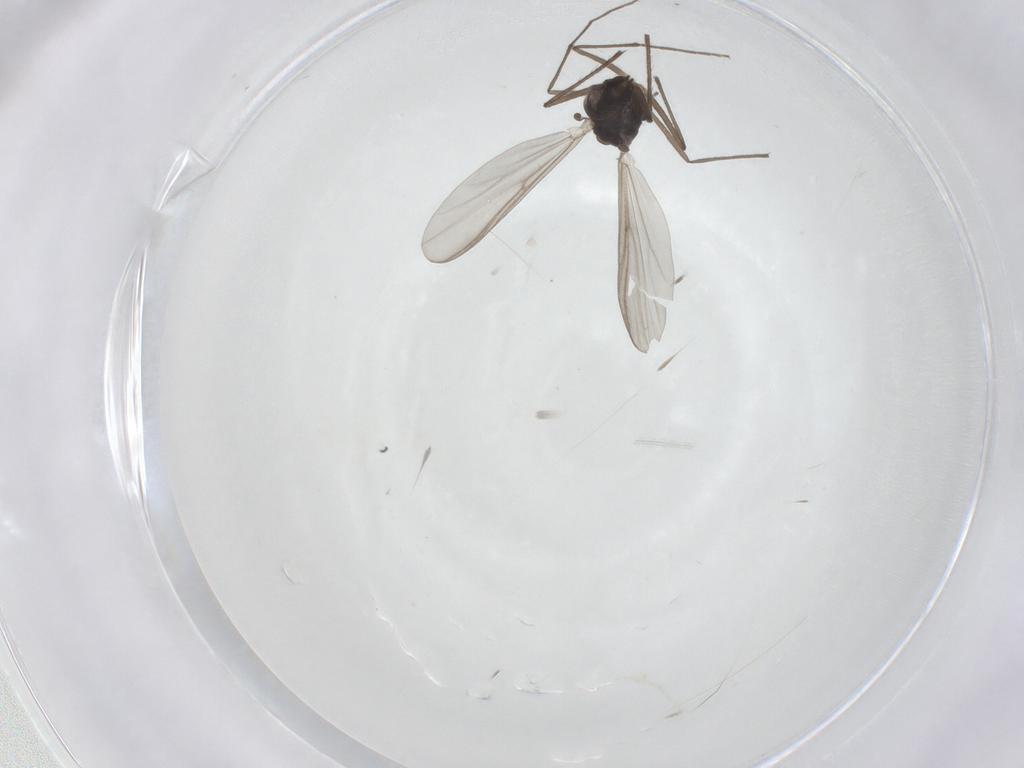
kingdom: Animalia
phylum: Arthropoda
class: Insecta
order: Diptera
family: Chironomidae
